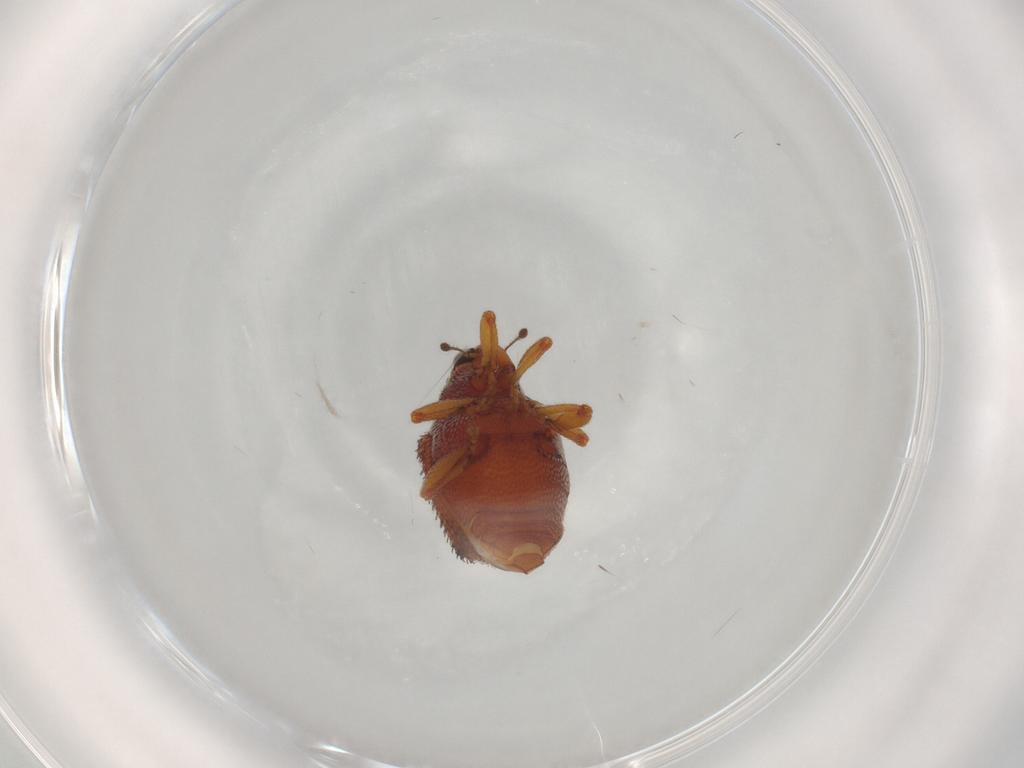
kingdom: Animalia
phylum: Arthropoda
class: Insecta
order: Coleoptera
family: Curculionidae
